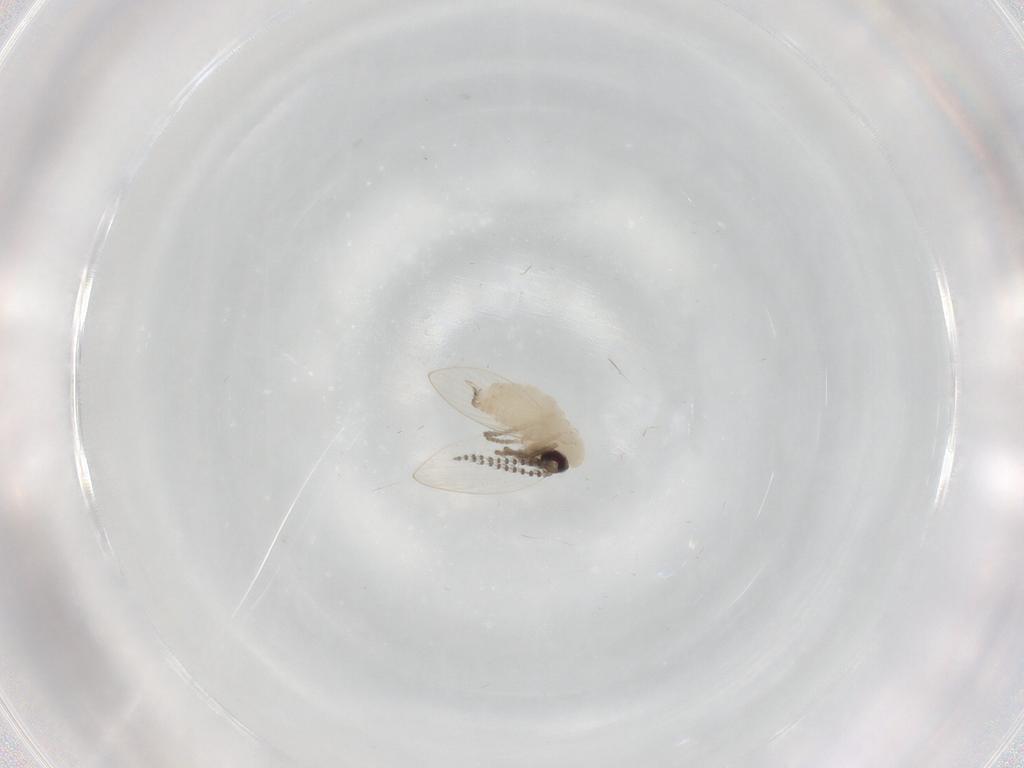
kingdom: Animalia
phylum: Arthropoda
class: Insecta
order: Diptera
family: Psychodidae
